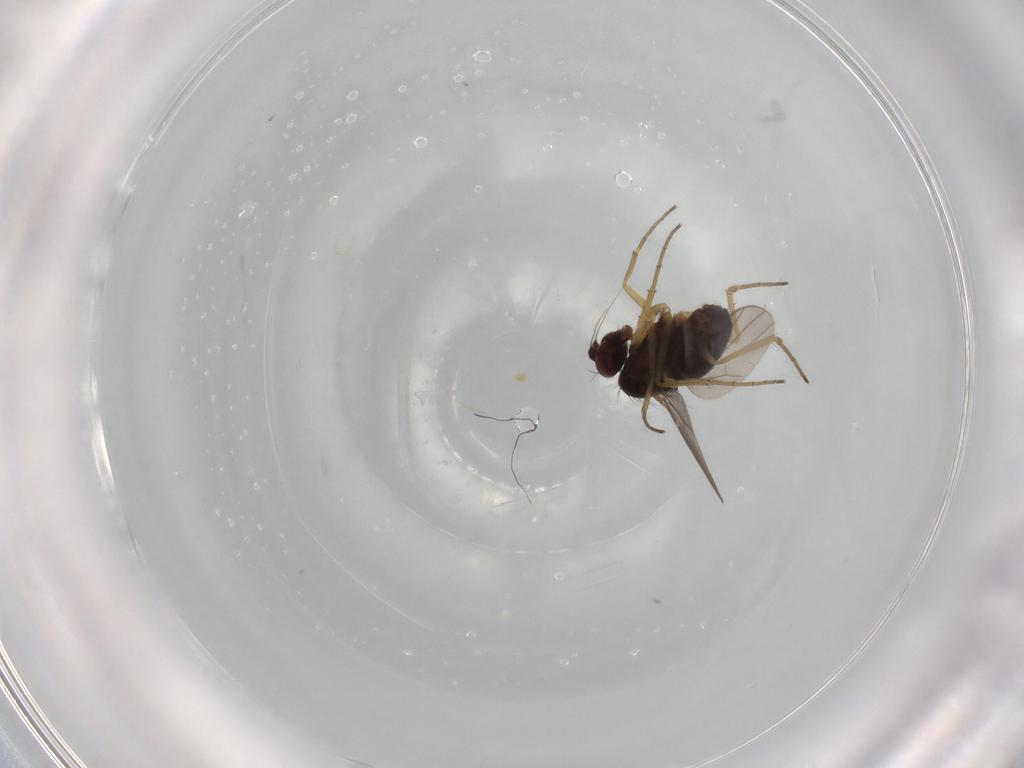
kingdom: Animalia
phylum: Arthropoda
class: Insecta
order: Diptera
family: Dolichopodidae
